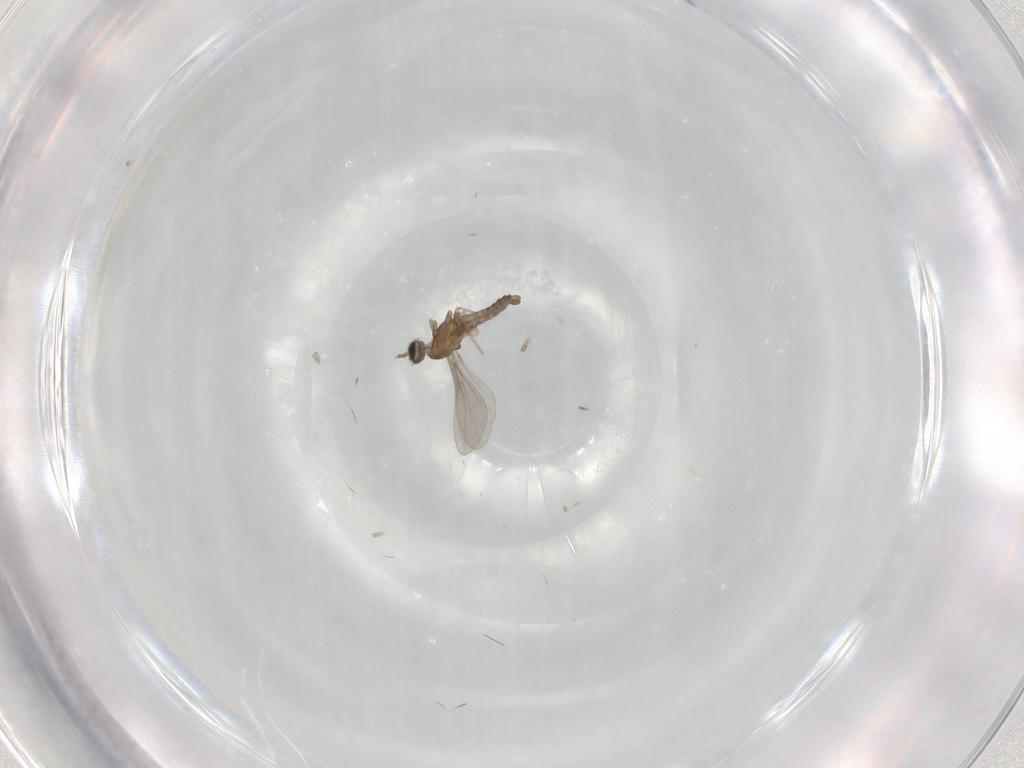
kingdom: Animalia
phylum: Arthropoda
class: Insecta
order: Diptera
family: Cecidomyiidae
